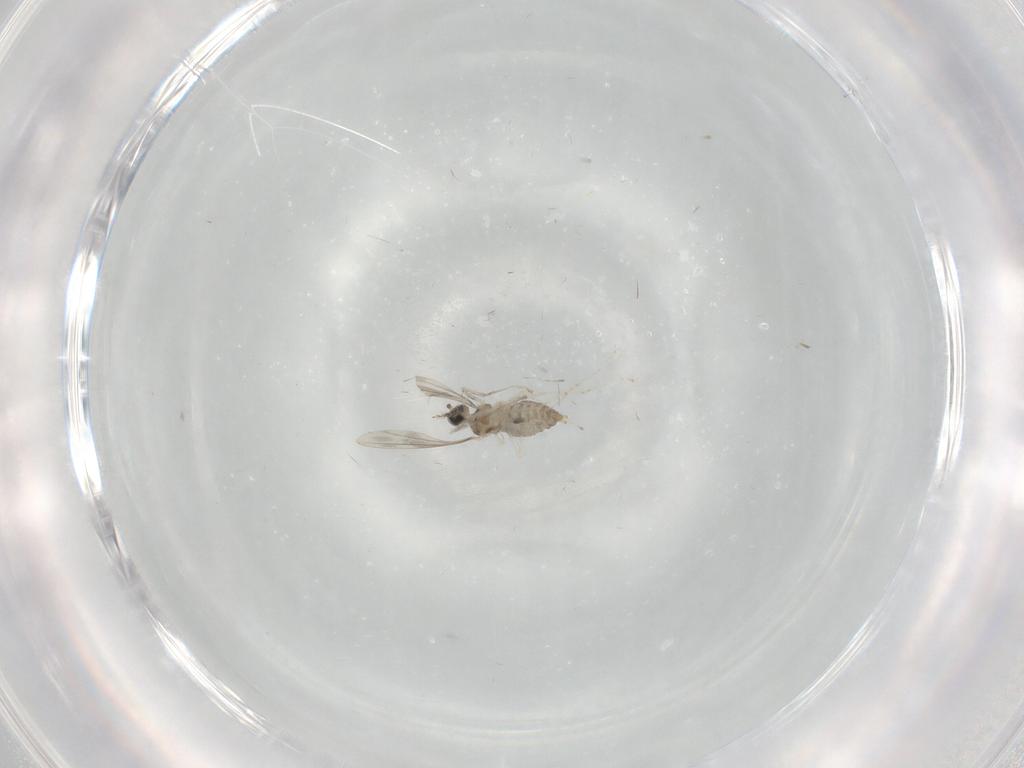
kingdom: Animalia
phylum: Arthropoda
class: Insecta
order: Diptera
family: Cecidomyiidae
